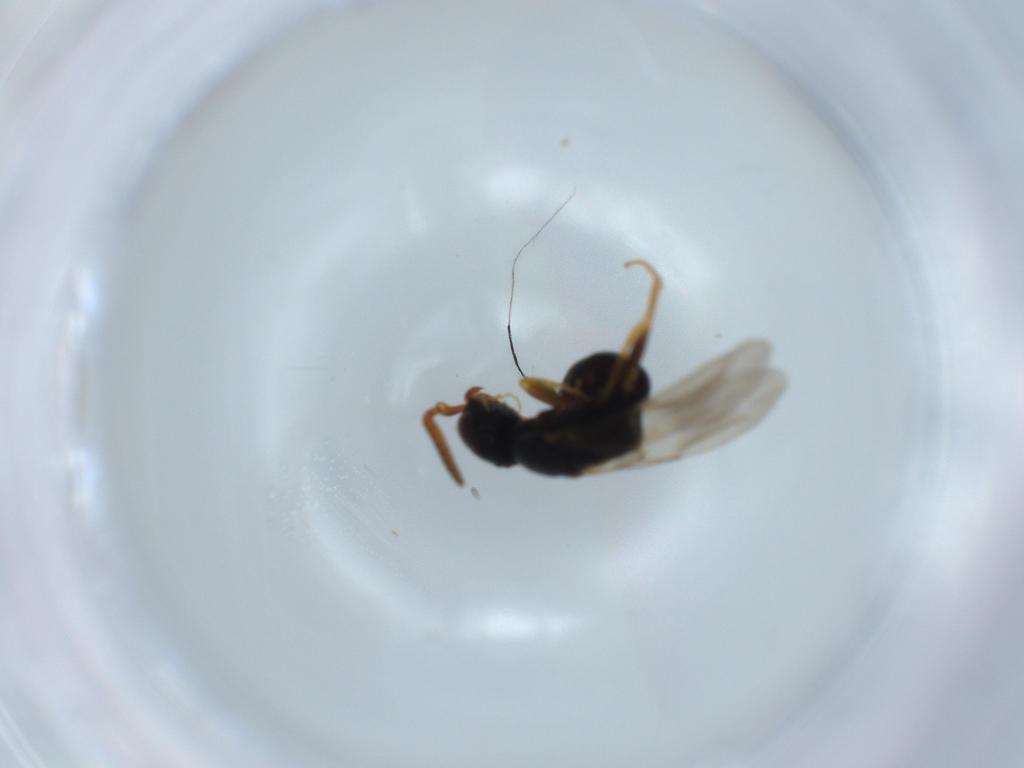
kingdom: Animalia
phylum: Arthropoda
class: Insecta
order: Hymenoptera
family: Bethylidae
